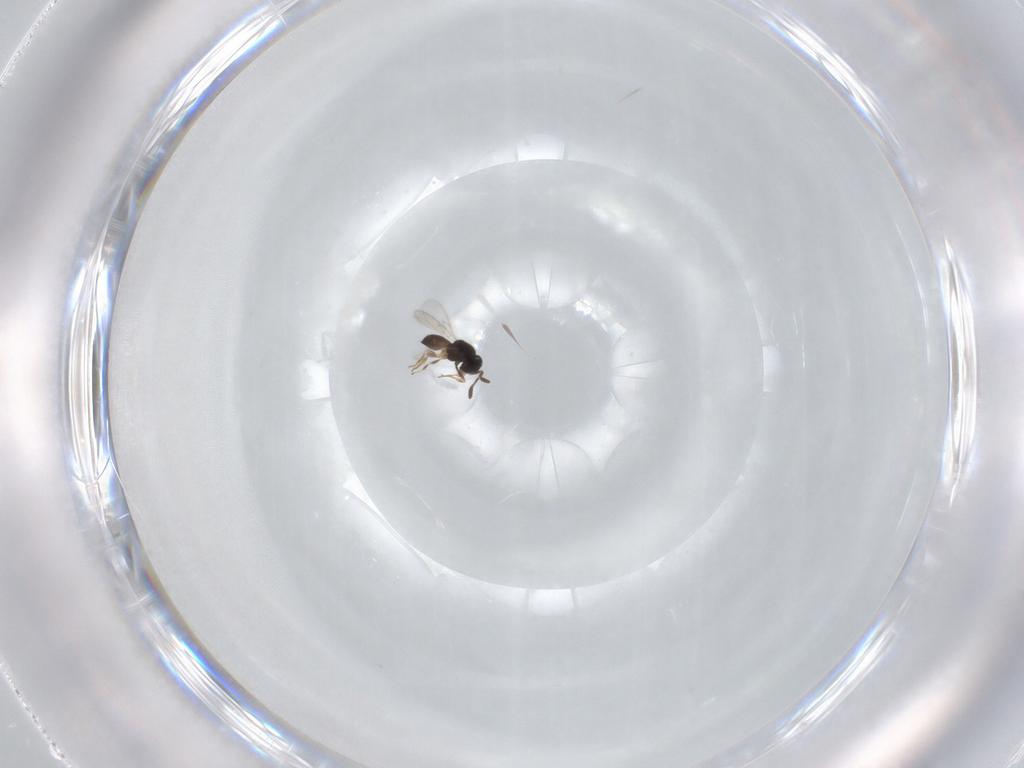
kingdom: Animalia
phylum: Arthropoda
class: Insecta
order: Hymenoptera
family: Scelionidae
